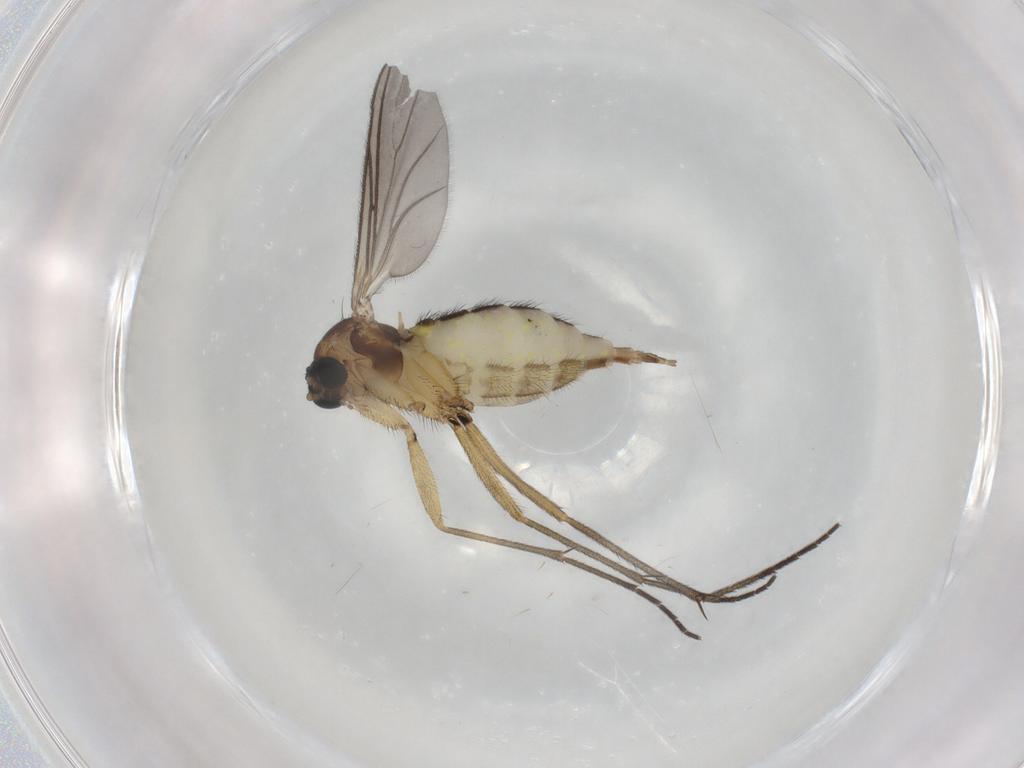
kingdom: Animalia
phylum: Arthropoda
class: Insecta
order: Diptera
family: Sciaridae
